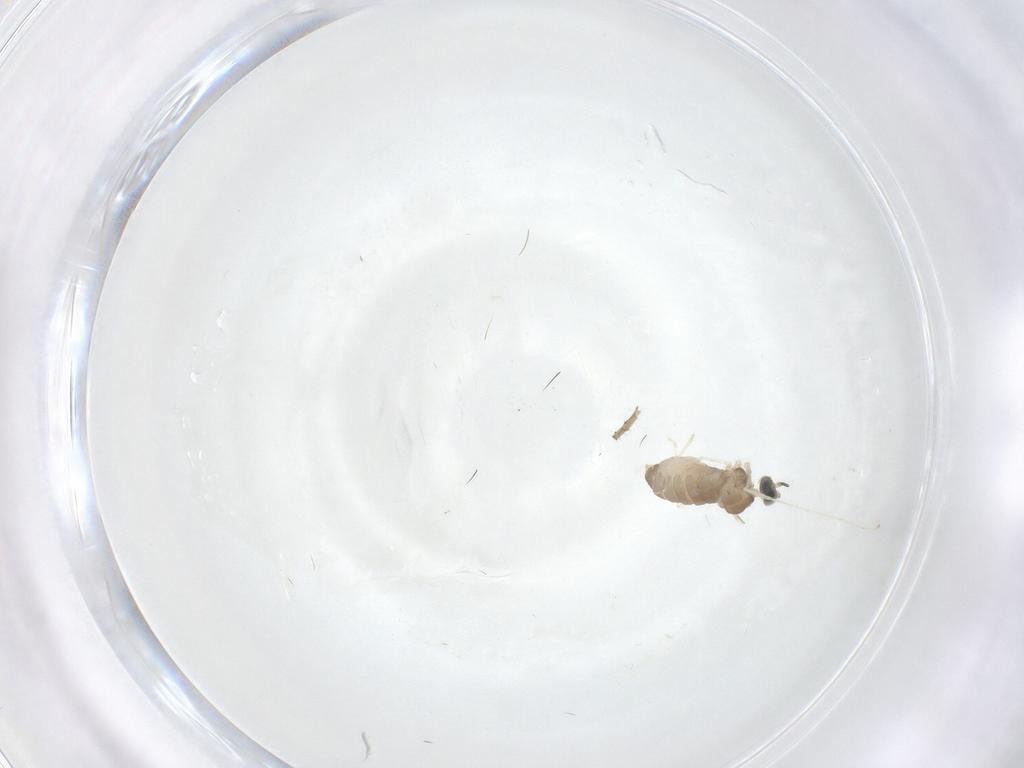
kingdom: Animalia
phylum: Arthropoda
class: Insecta
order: Diptera
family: Cecidomyiidae
